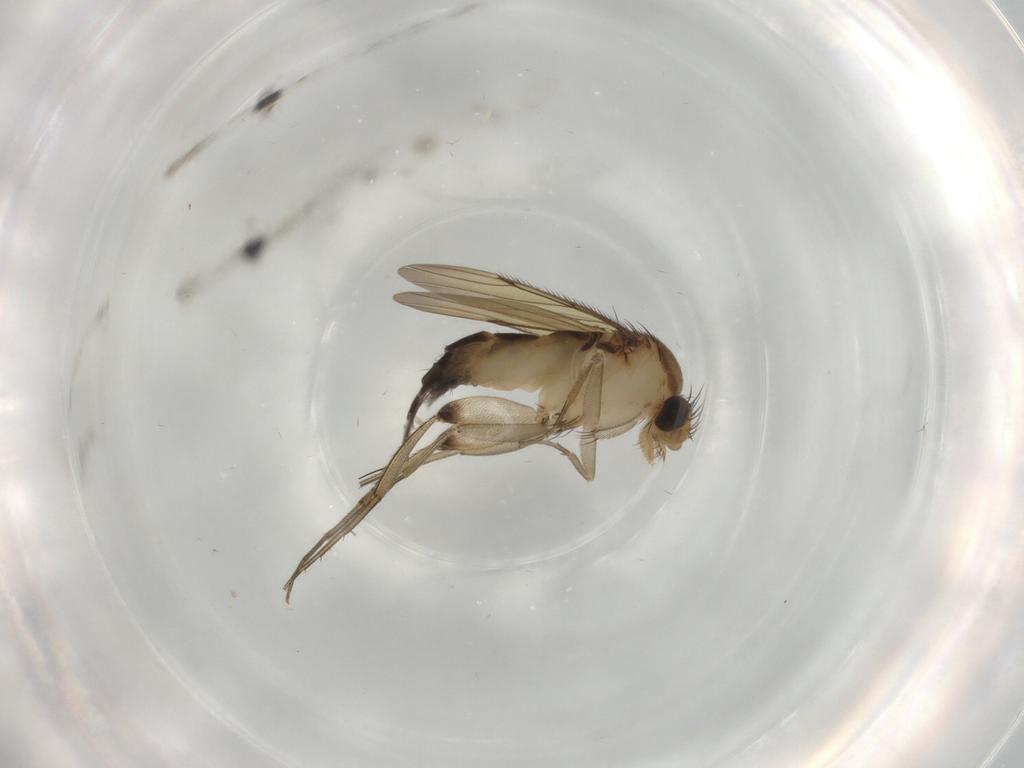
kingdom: Animalia
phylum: Arthropoda
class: Insecta
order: Diptera
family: Phoridae
